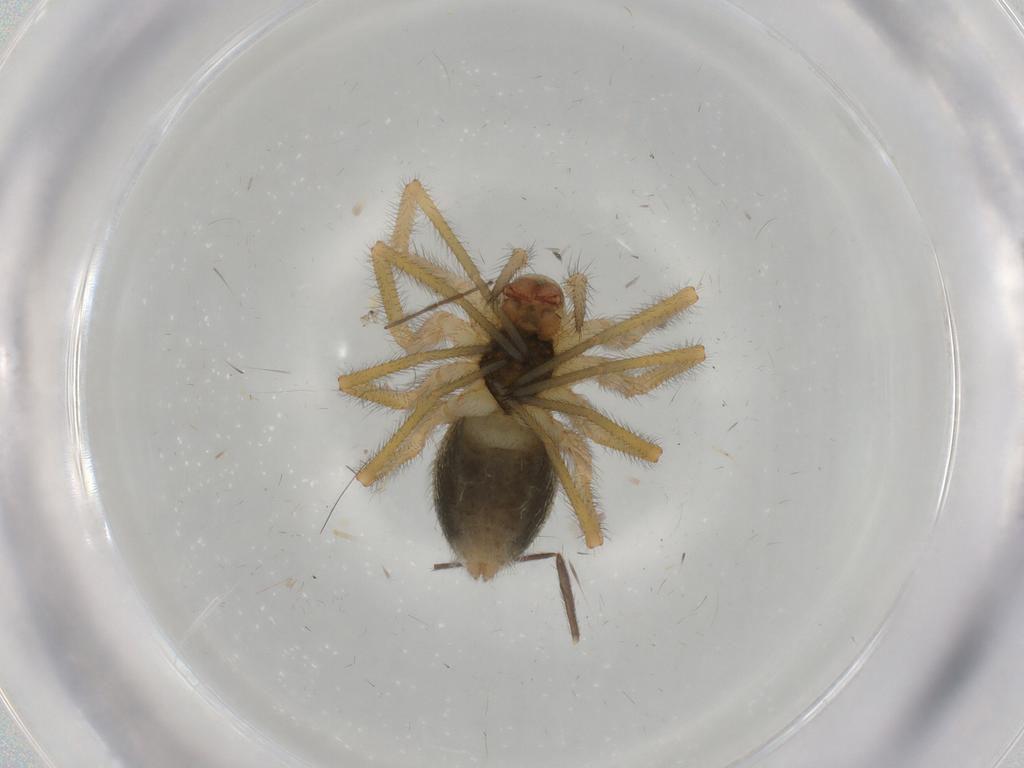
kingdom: Animalia
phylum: Arthropoda
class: Arachnida
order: Araneae
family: Linyphiidae
